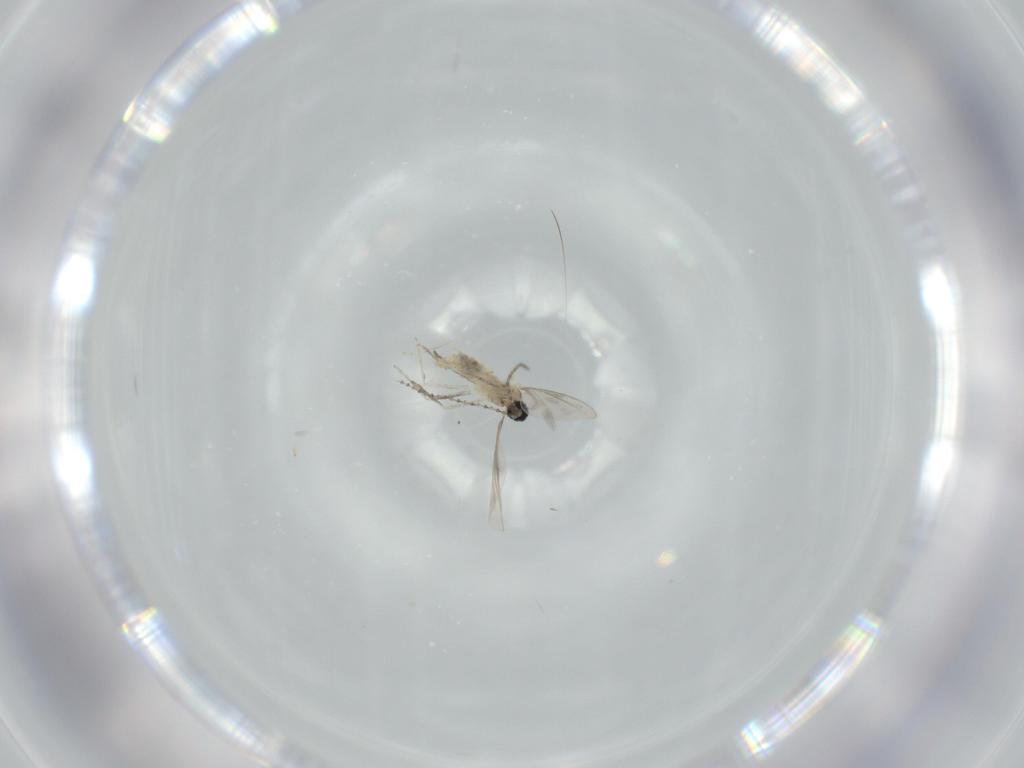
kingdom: Animalia
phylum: Arthropoda
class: Insecta
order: Diptera
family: Cecidomyiidae
